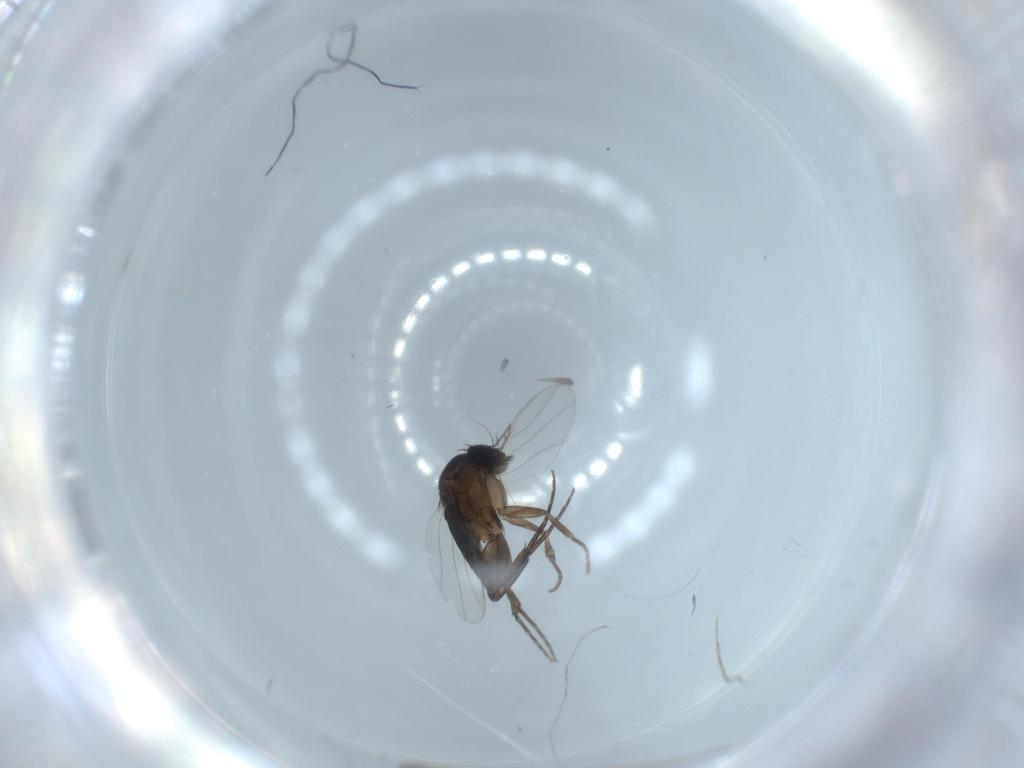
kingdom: Animalia
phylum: Arthropoda
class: Insecta
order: Diptera
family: Phoridae
